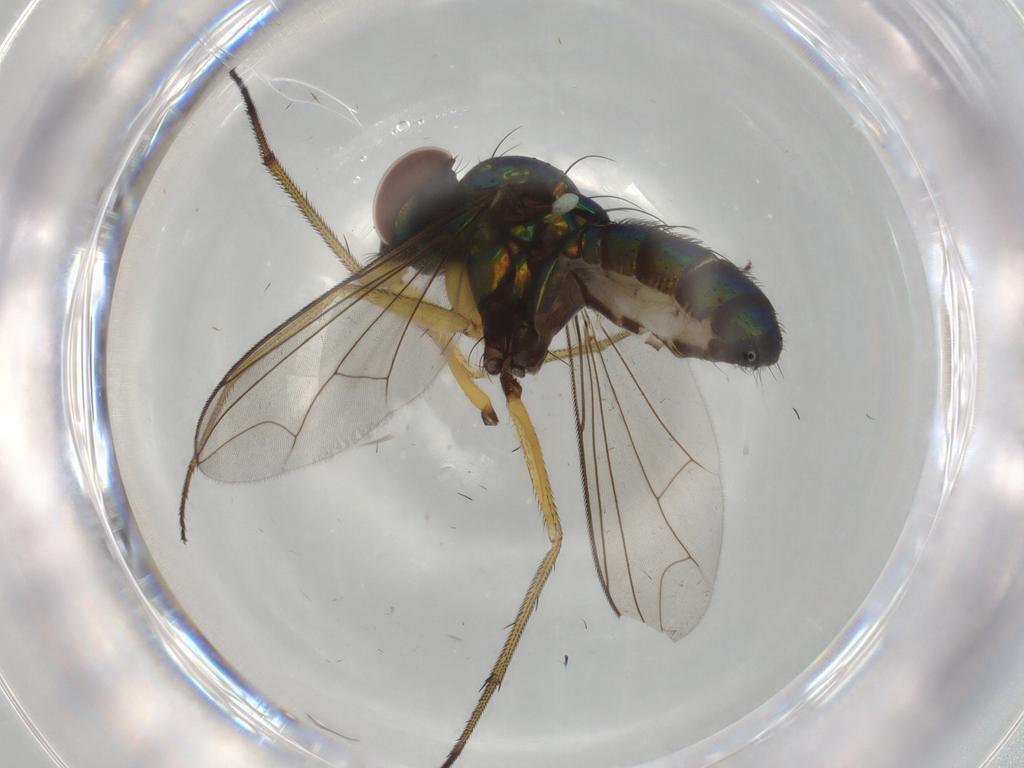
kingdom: Animalia
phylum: Arthropoda
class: Insecta
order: Diptera
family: Dolichopodidae
